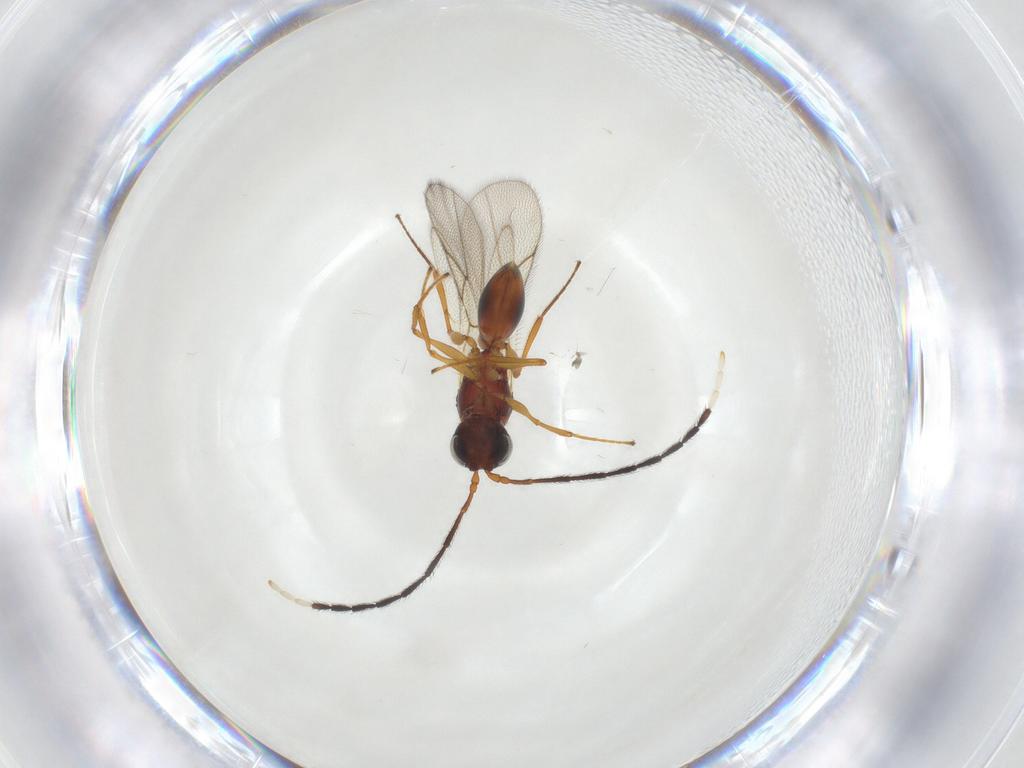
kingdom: Animalia
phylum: Arthropoda
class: Insecta
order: Hymenoptera
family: Figitidae
